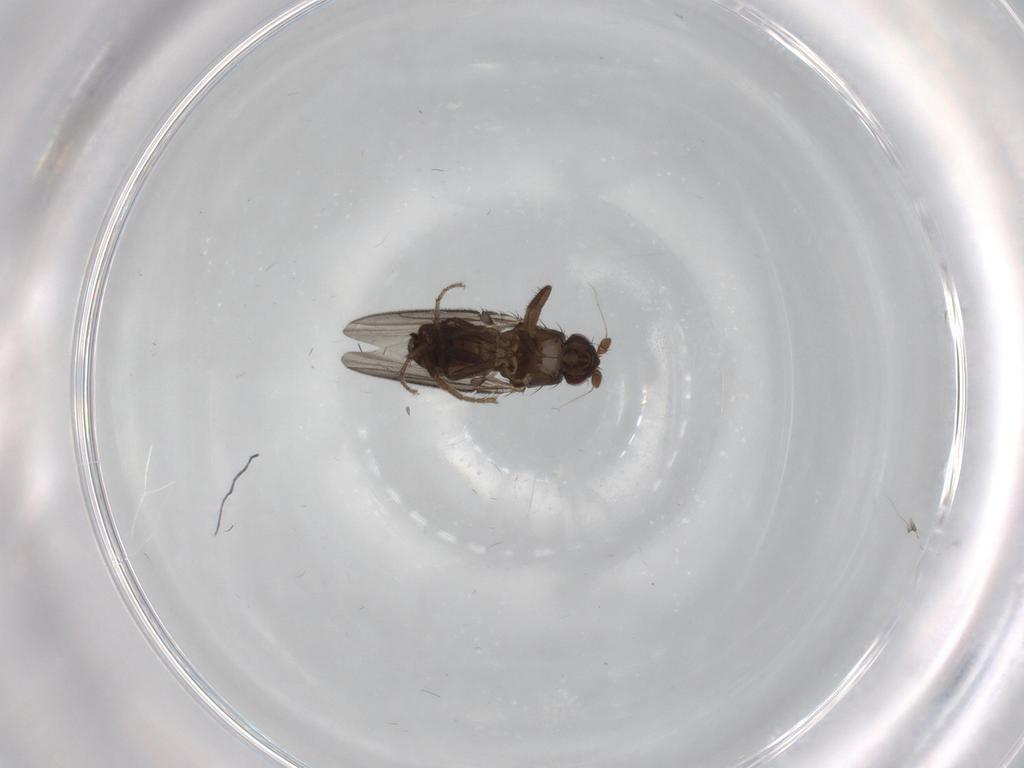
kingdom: Animalia
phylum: Arthropoda
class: Insecta
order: Diptera
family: Sphaeroceridae
